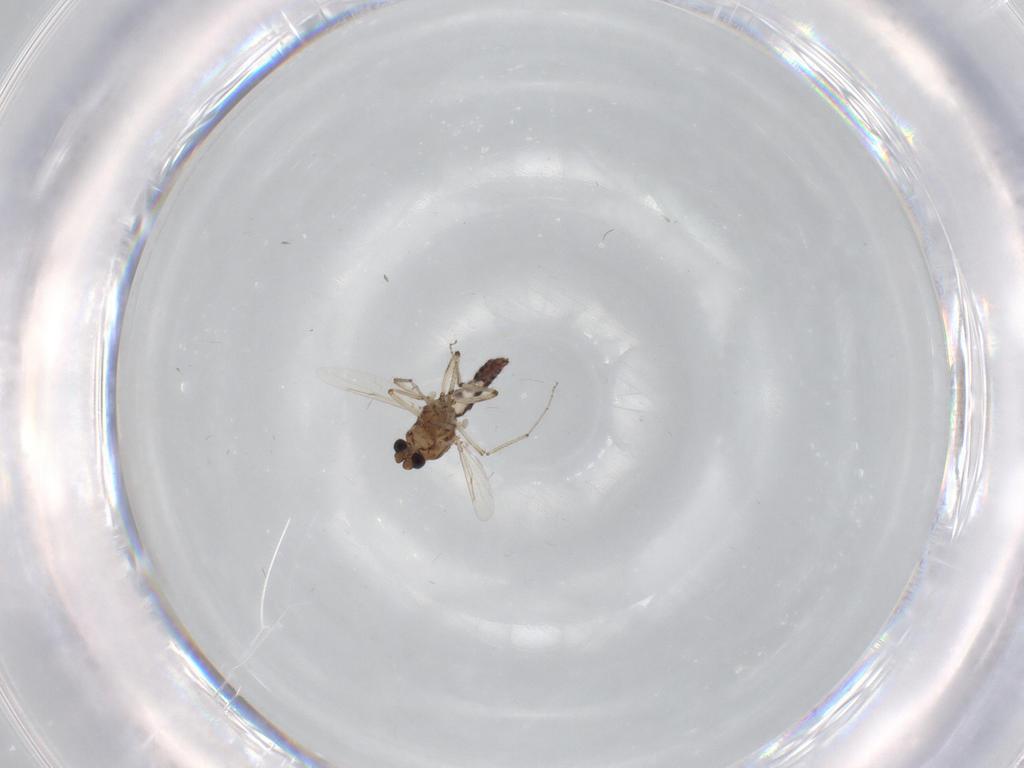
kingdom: Animalia
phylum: Arthropoda
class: Insecta
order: Diptera
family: Ceratopogonidae
